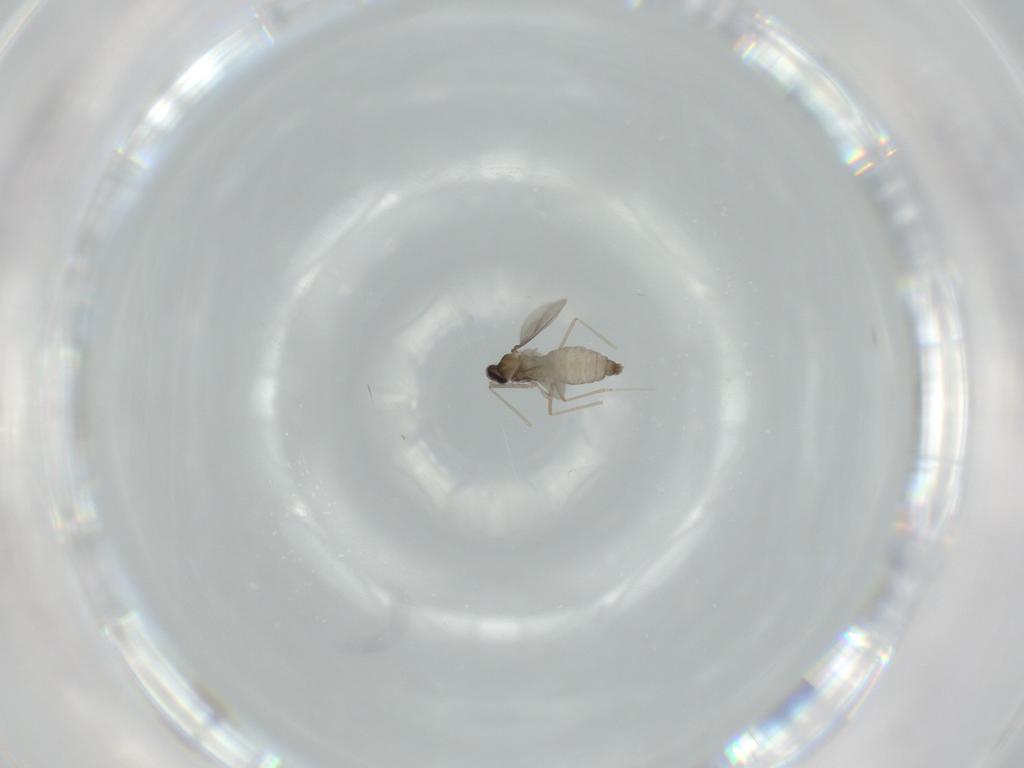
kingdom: Animalia
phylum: Arthropoda
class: Insecta
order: Diptera
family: Cecidomyiidae
